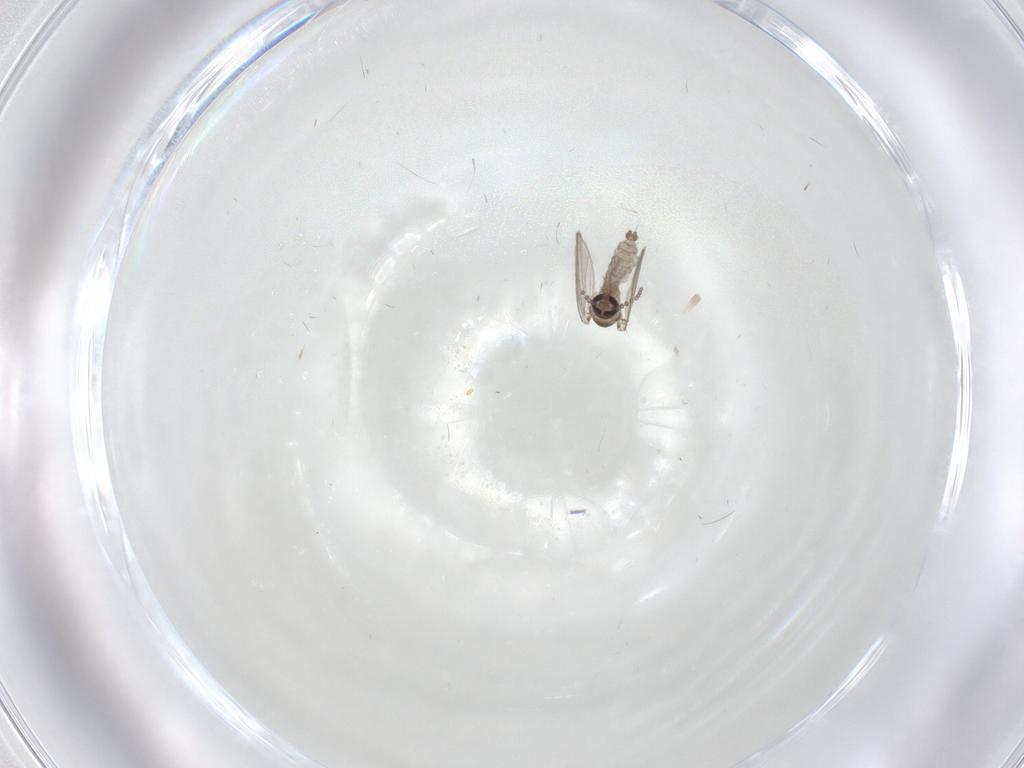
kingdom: Animalia
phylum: Arthropoda
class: Insecta
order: Diptera
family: Psychodidae
